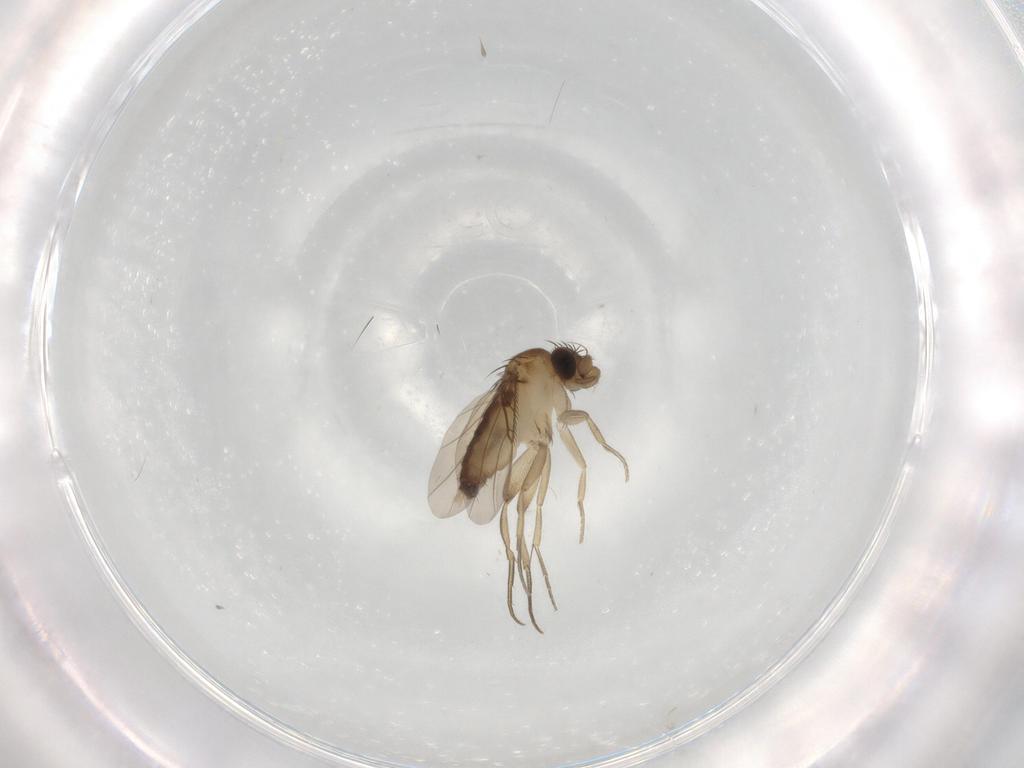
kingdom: Animalia
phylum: Arthropoda
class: Insecta
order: Diptera
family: Phoridae
